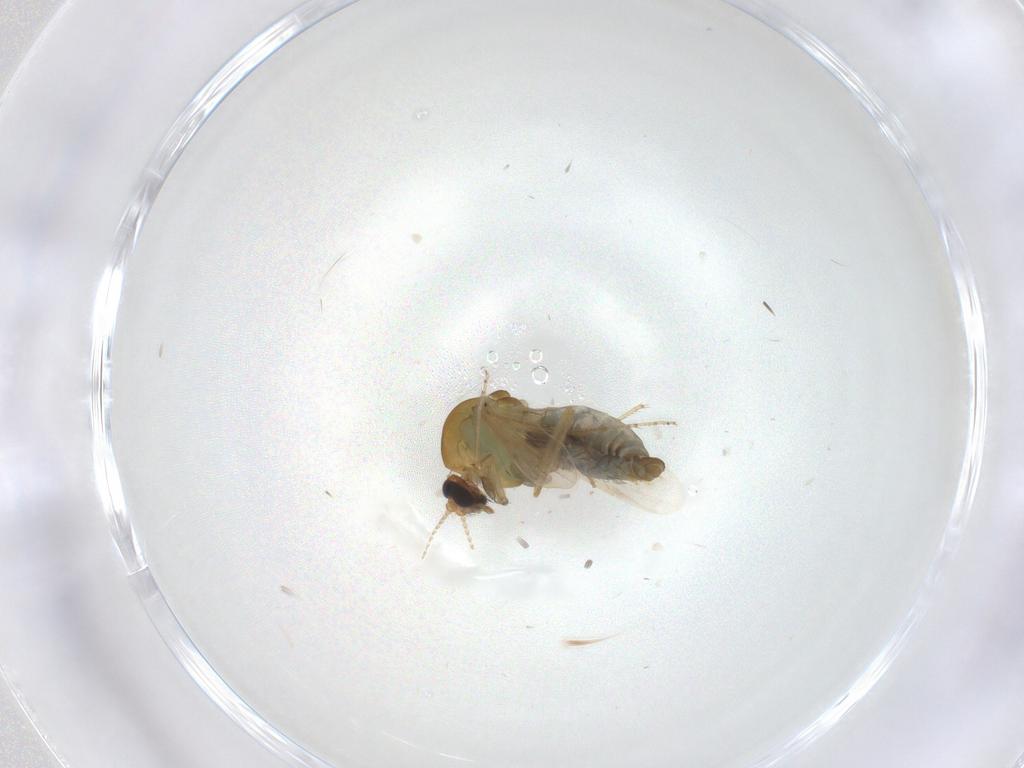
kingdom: Animalia
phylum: Arthropoda
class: Insecta
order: Diptera
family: Ceratopogonidae
